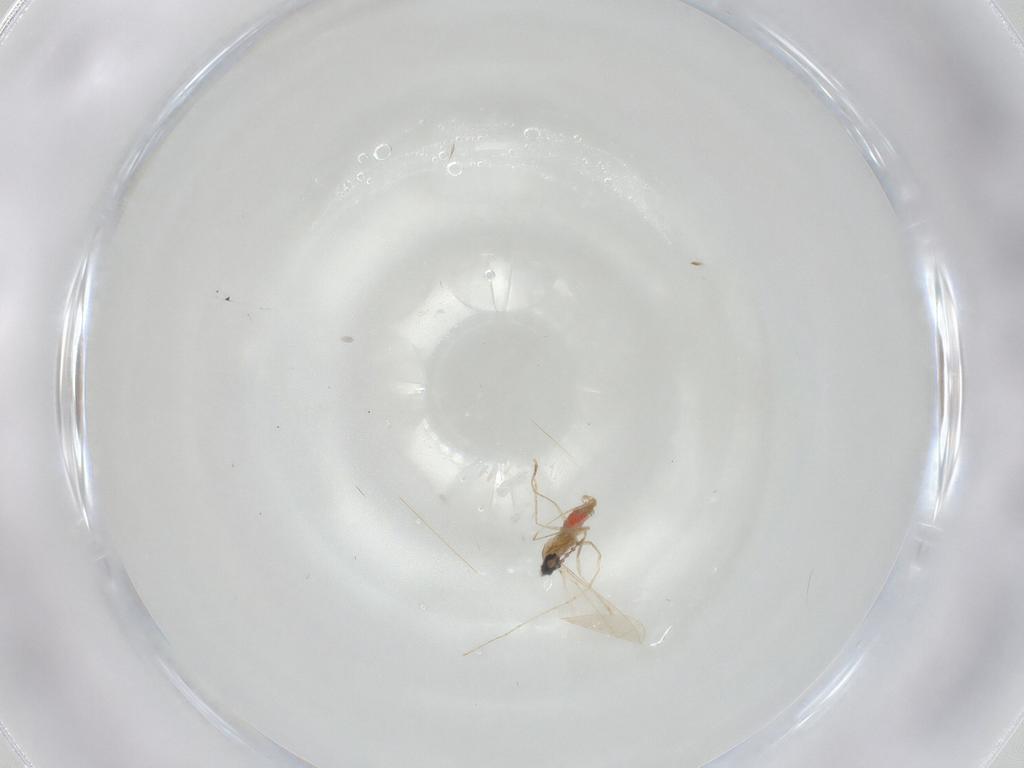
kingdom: Animalia
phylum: Arthropoda
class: Insecta
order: Diptera
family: Cecidomyiidae
